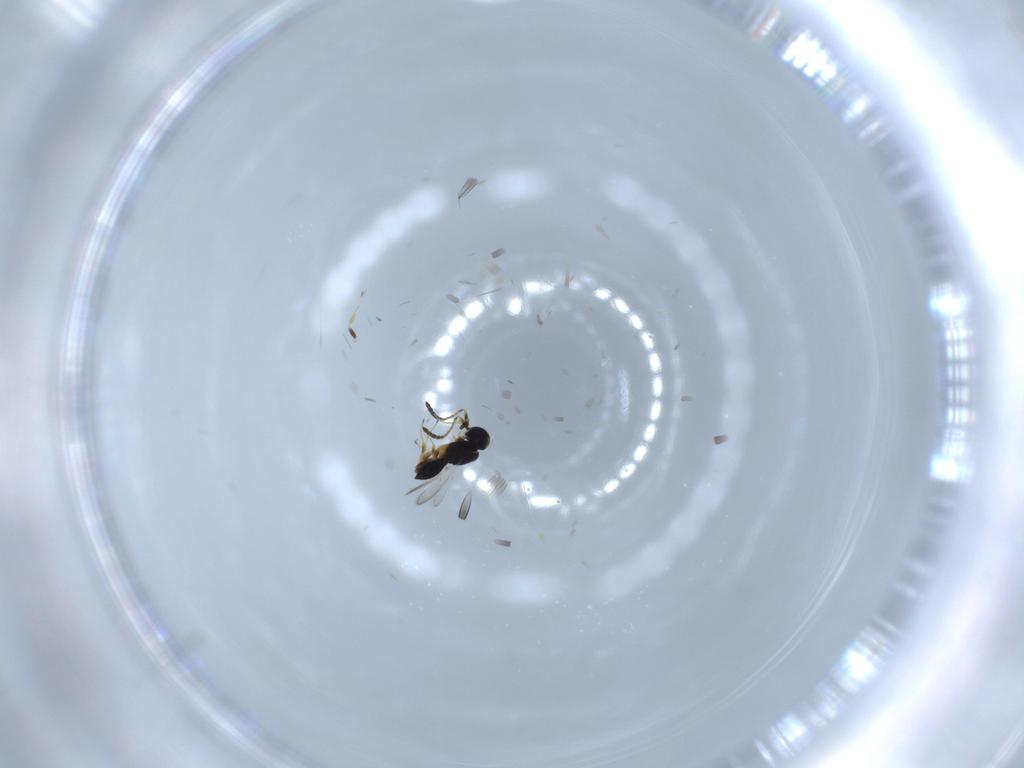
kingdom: Animalia
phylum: Arthropoda
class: Insecta
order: Hymenoptera
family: Scelionidae
